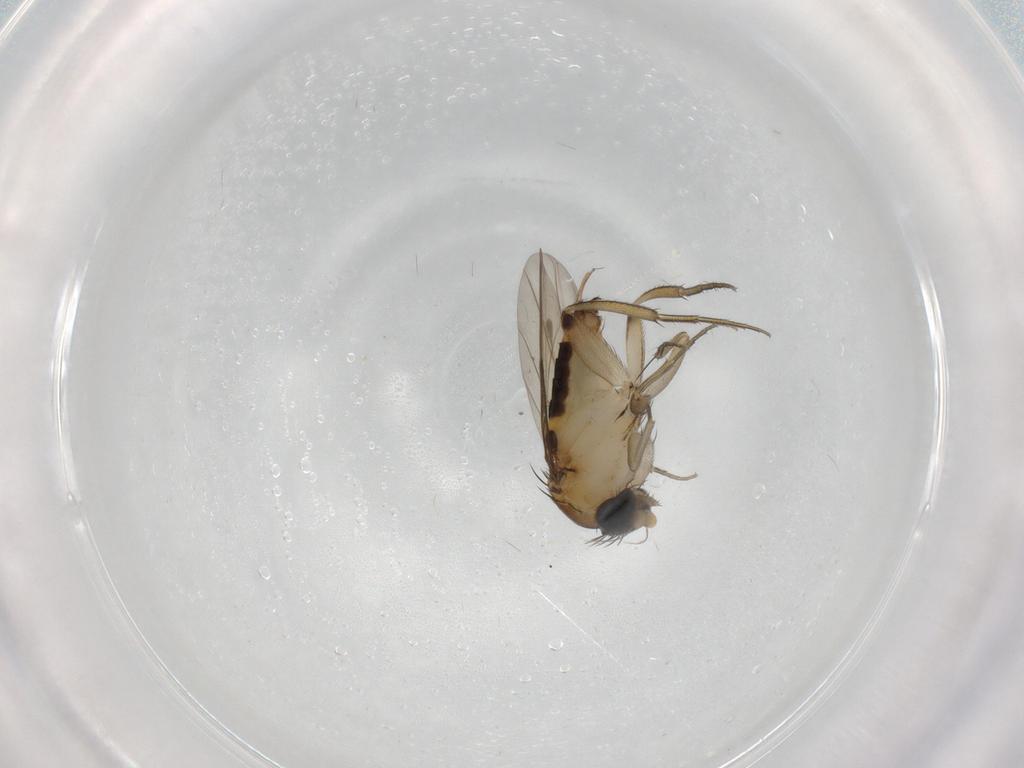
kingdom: Animalia
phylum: Arthropoda
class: Insecta
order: Diptera
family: Phoridae
